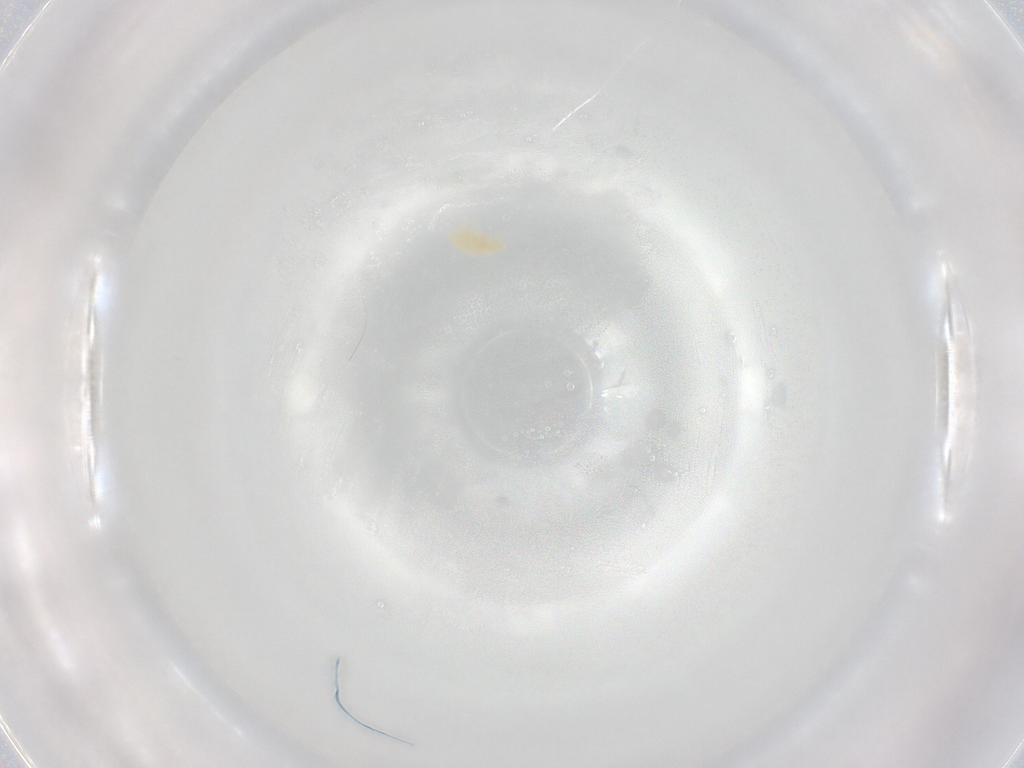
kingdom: Animalia
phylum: Arthropoda
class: Arachnida
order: Trombidiformes
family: Eupodidae
